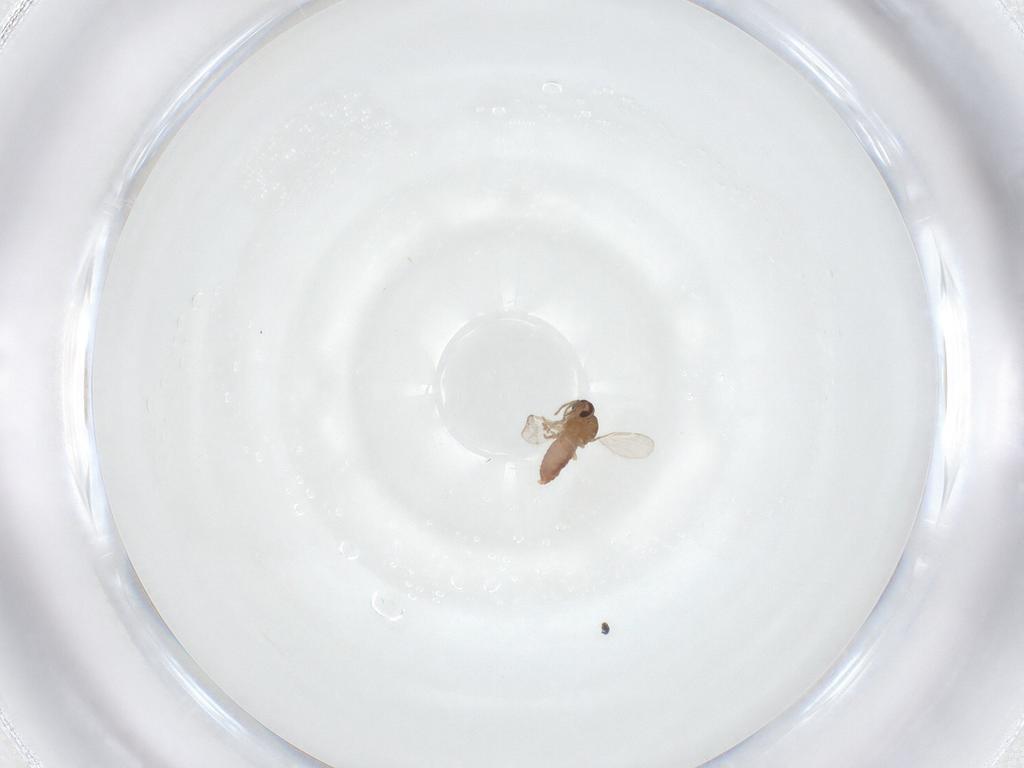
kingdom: Animalia
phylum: Arthropoda
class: Insecta
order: Diptera
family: Ceratopogonidae
